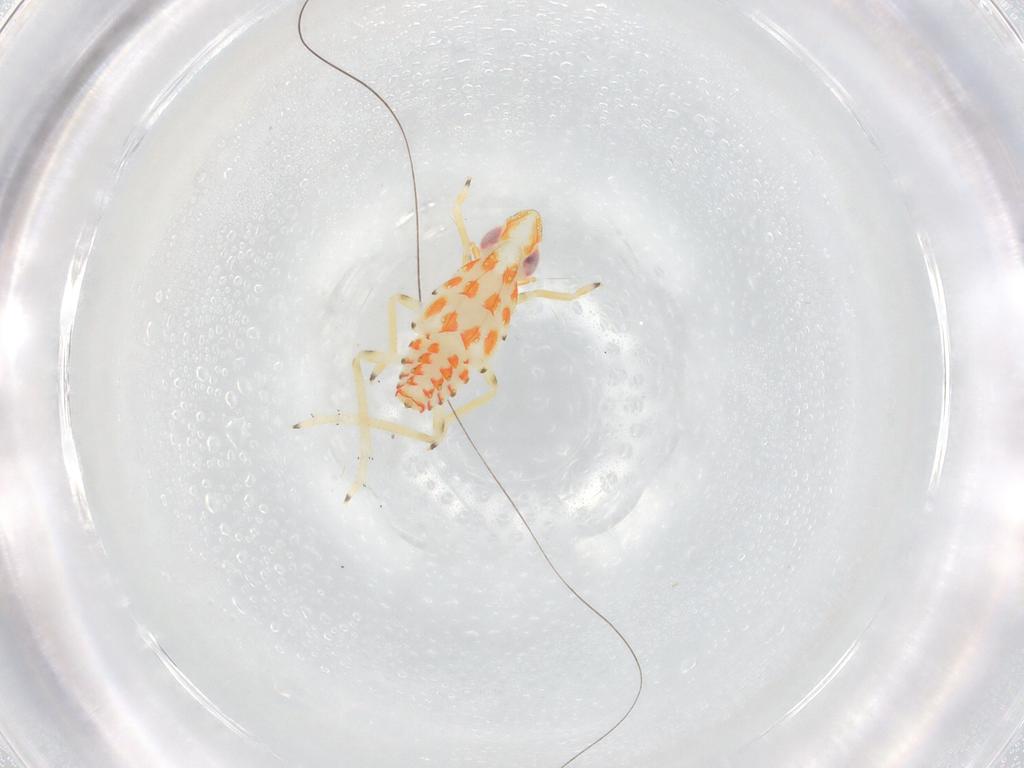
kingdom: Animalia
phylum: Arthropoda
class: Insecta
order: Hemiptera
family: Tropiduchidae
